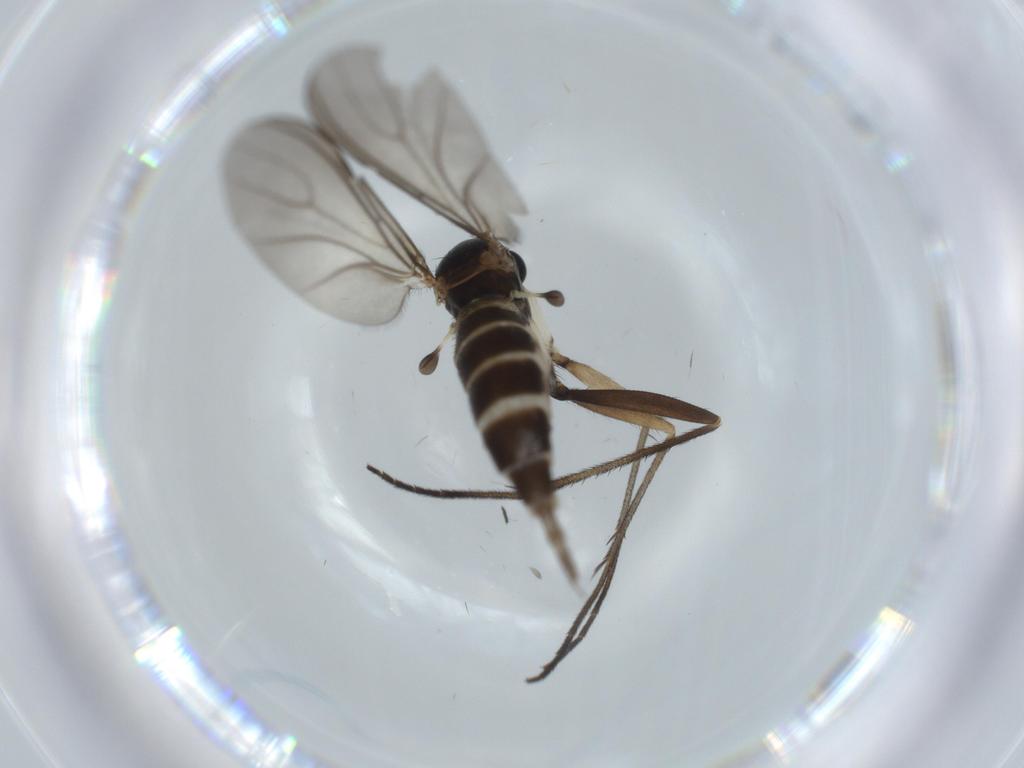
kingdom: Animalia
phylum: Arthropoda
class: Insecta
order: Diptera
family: Sciaridae
